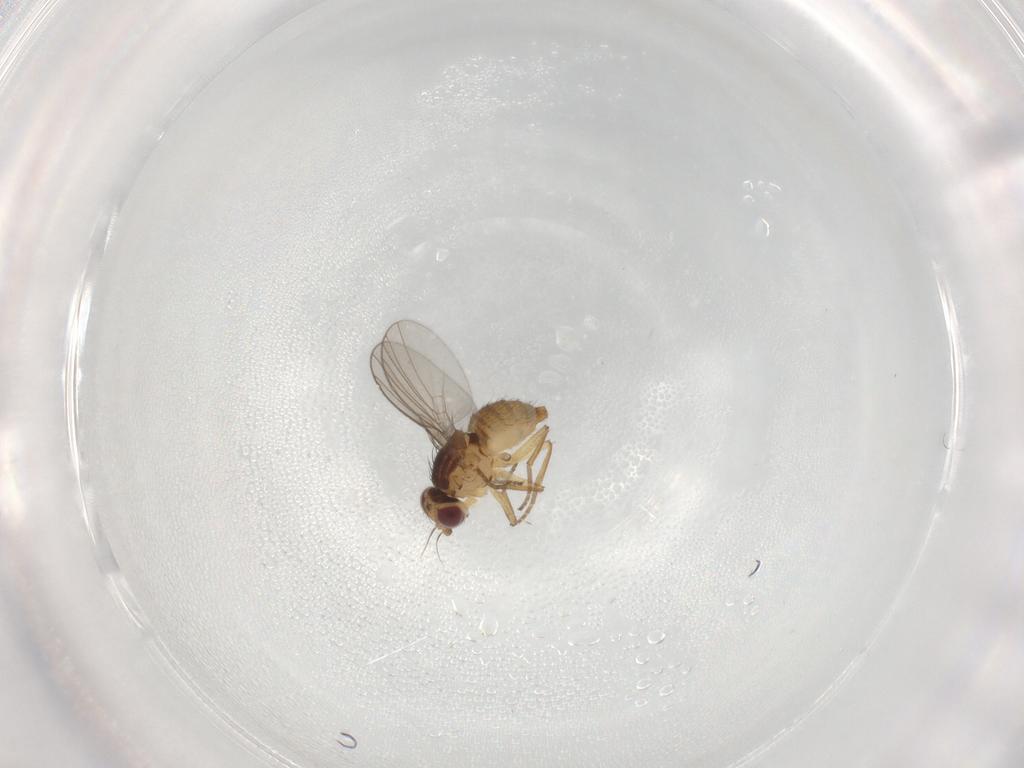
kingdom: Animalia
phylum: Arthropoda
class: Insecta
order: Diptera
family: Agromyzidae
